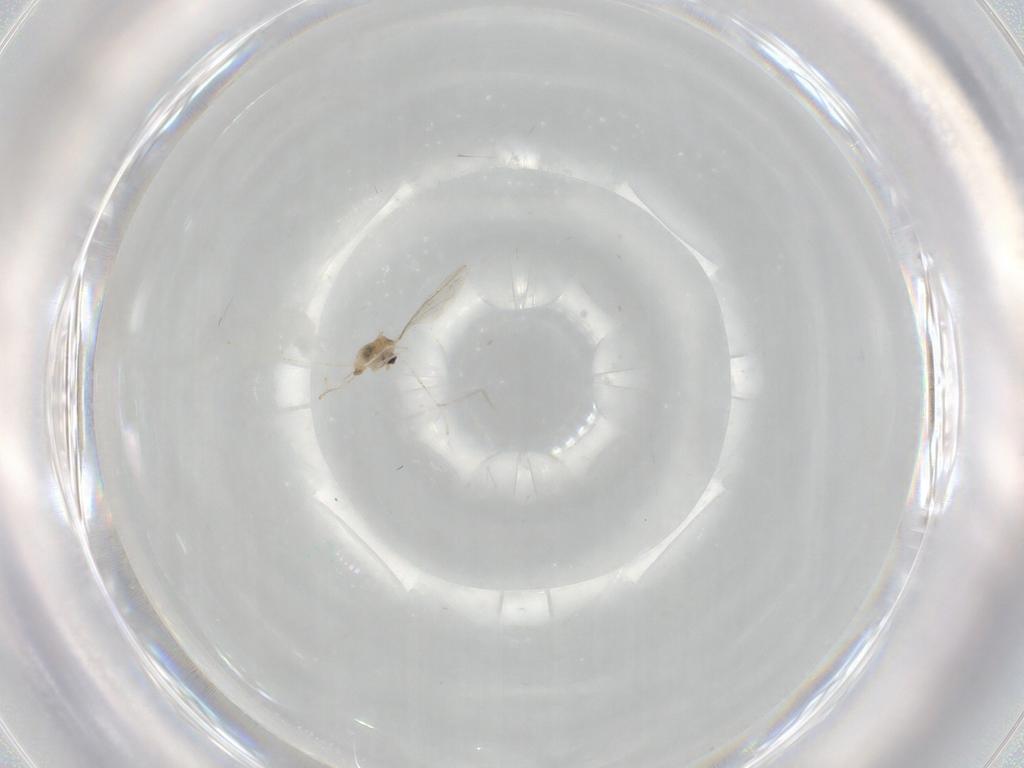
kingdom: Animalia
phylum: Arthropoda
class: Insecta
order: Diptera
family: Cecidomyiidae
